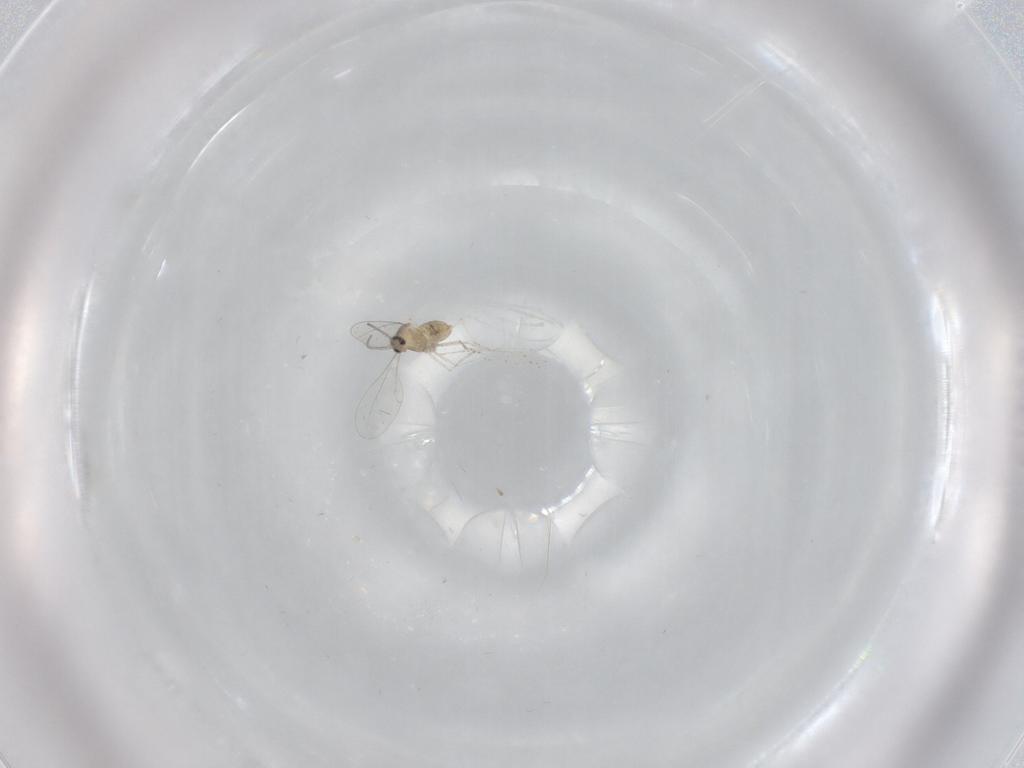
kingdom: Animalia
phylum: Arthropoda
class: Insecta
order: Diptera
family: Cecidomyiidae
